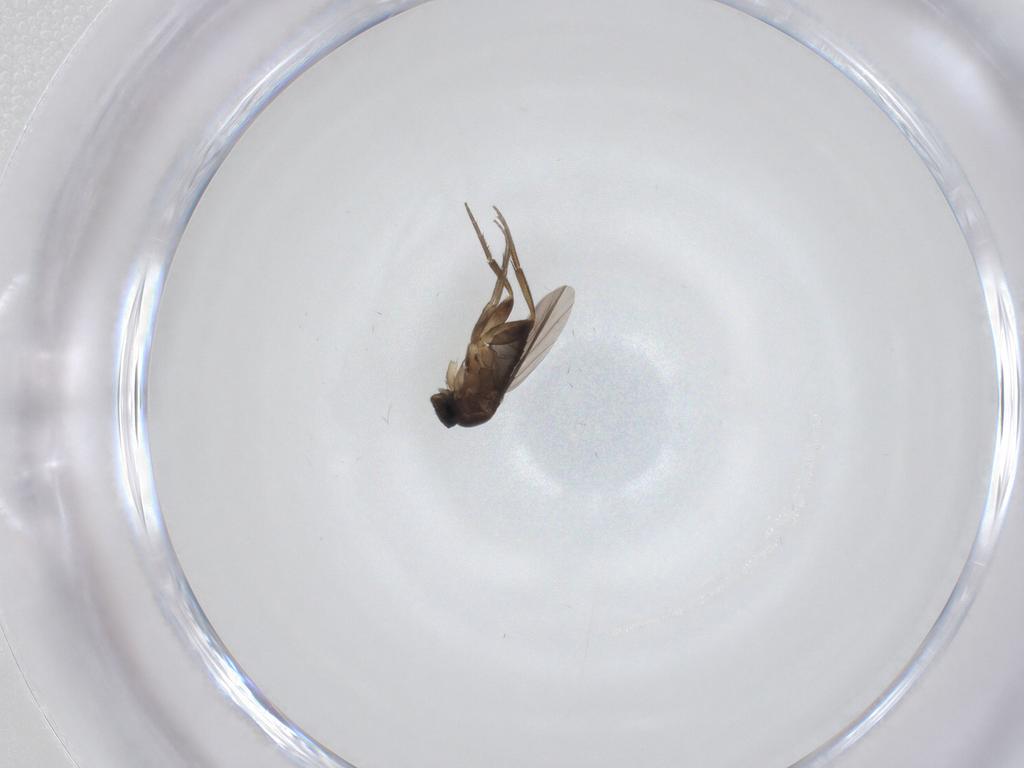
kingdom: Animalia
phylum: Arthropoda
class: Insecta
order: Diptera
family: Phoridae
